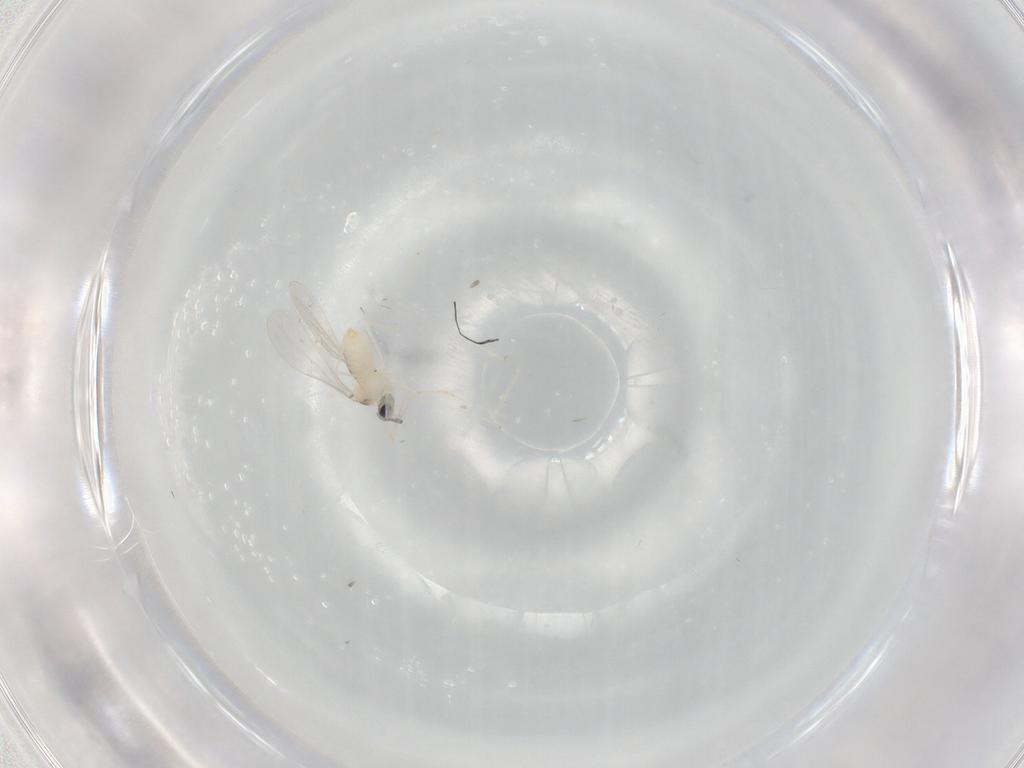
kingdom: Animalia
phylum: Arthropoda
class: Insecta
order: Diptera
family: Cecidomyiidae
